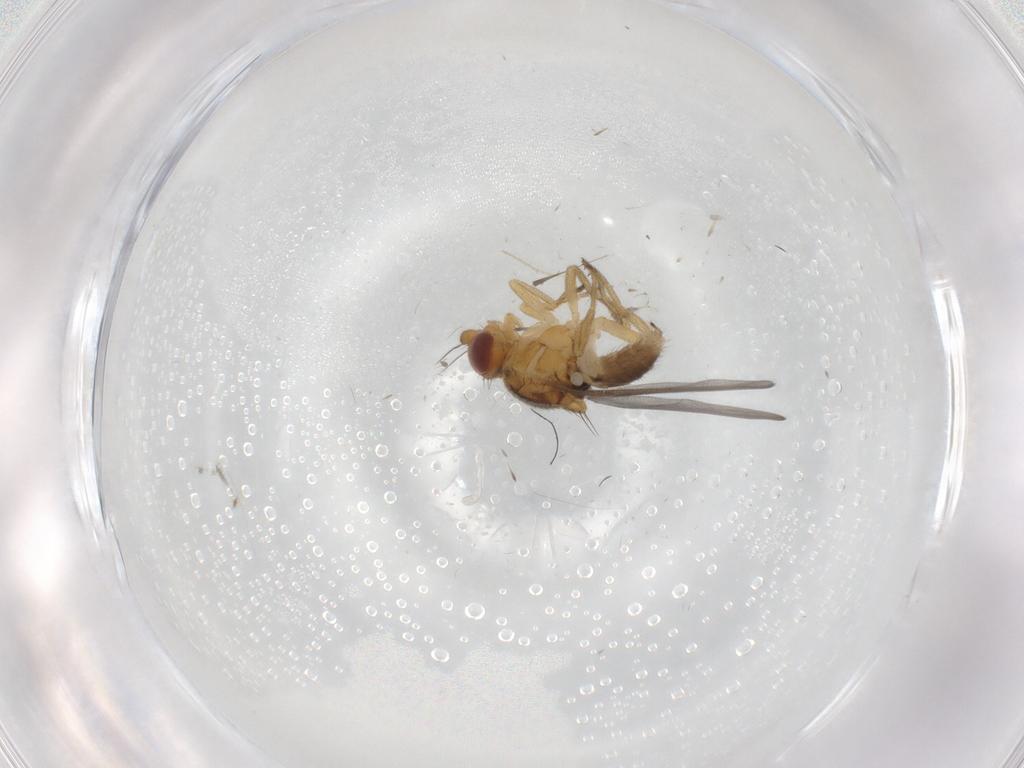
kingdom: Animalia
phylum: Arthropoda
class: Insecta
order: Diptera
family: Chloropidae
